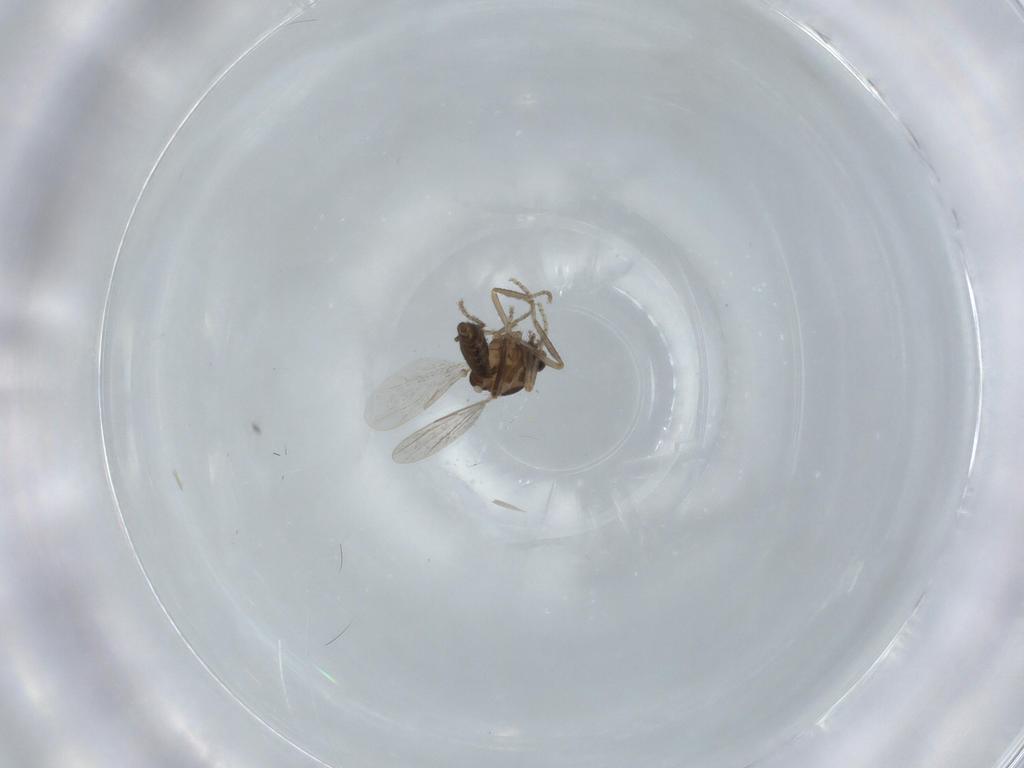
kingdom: Animalia
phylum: Arthropoda
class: Insecta
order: Diptera
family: Ceratopogonidae
